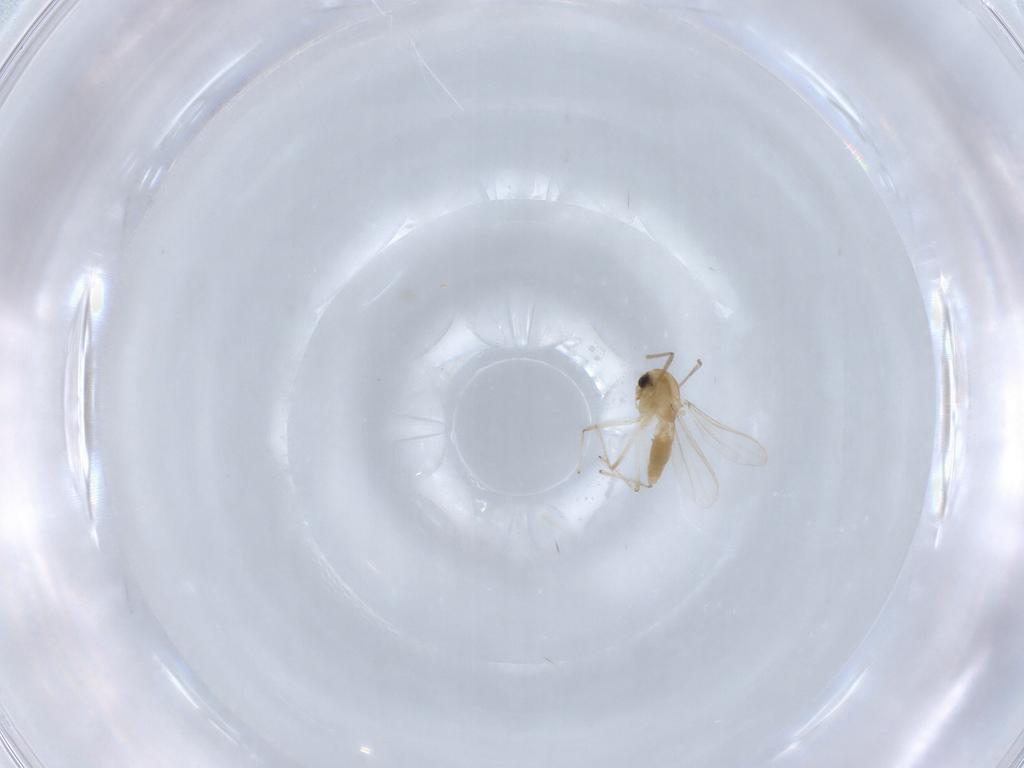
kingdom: Animalia
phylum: Arthropoda
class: Insecta
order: Diptera
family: Chironomidae
